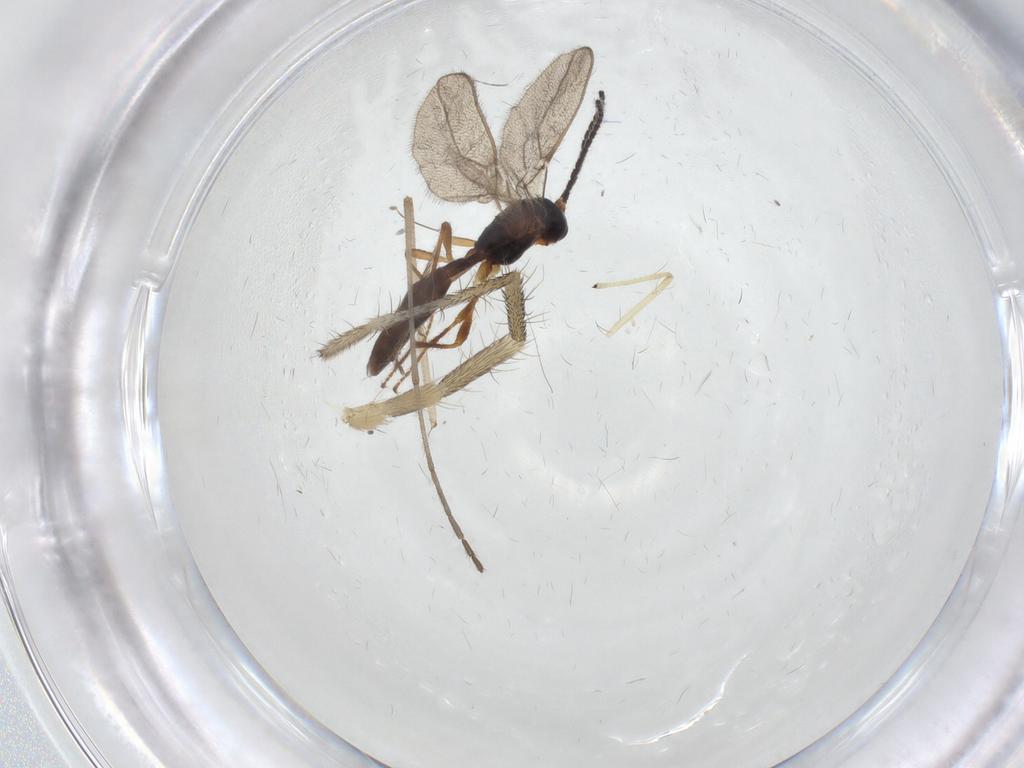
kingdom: Animalia
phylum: Arthropoda
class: Insecta
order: Hymenoptera
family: Braconidae
